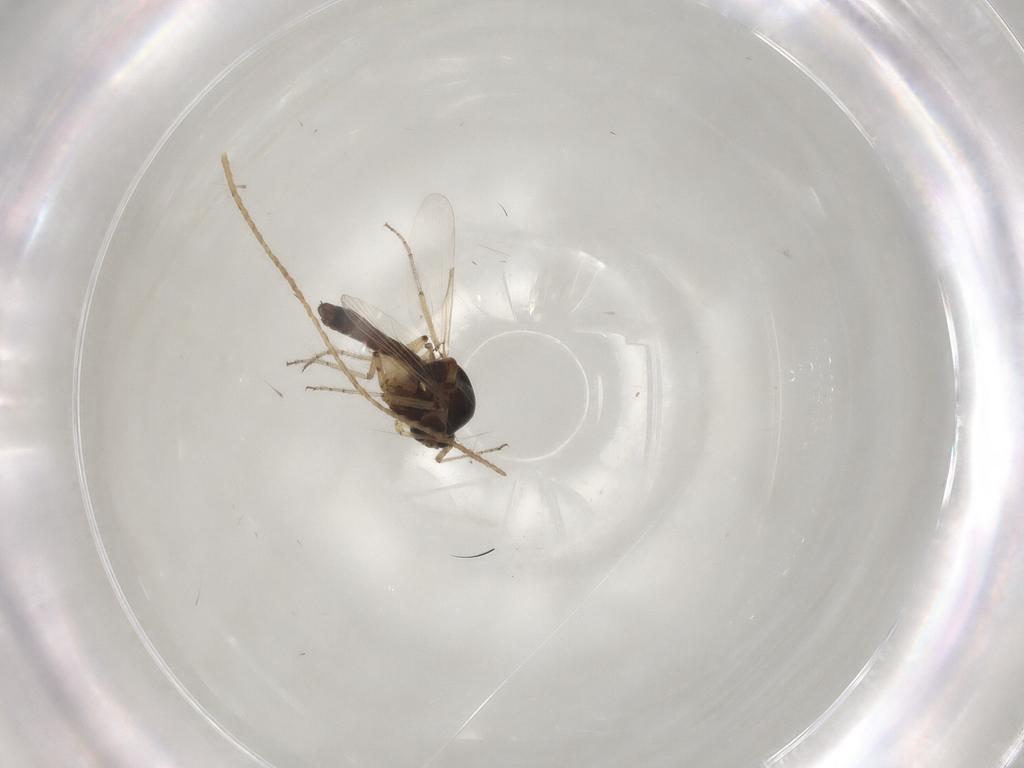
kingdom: Animalia
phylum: Arthropoda
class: Insecta
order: Diptera
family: Ceratopogonidae
